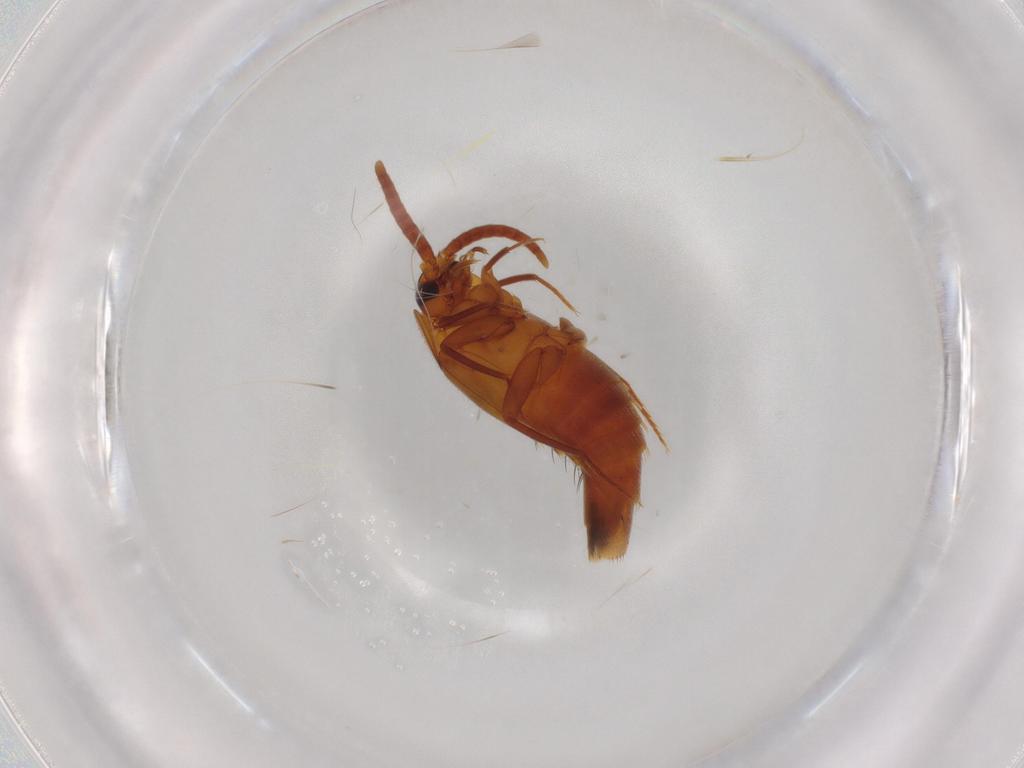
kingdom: Animalia
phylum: Arthropoda
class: Insecta
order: Coleoptera
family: Staphylinidae
